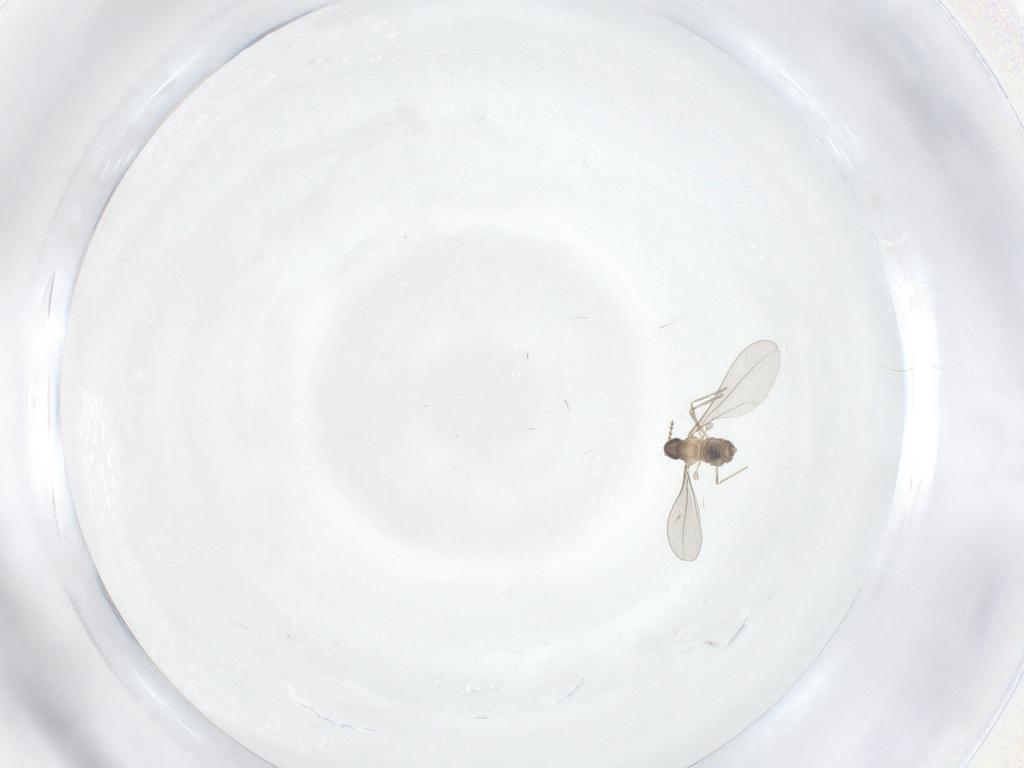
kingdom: Animalia
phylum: Arthropoda
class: Insecta
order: Diptera
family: Cecidomyiidae
